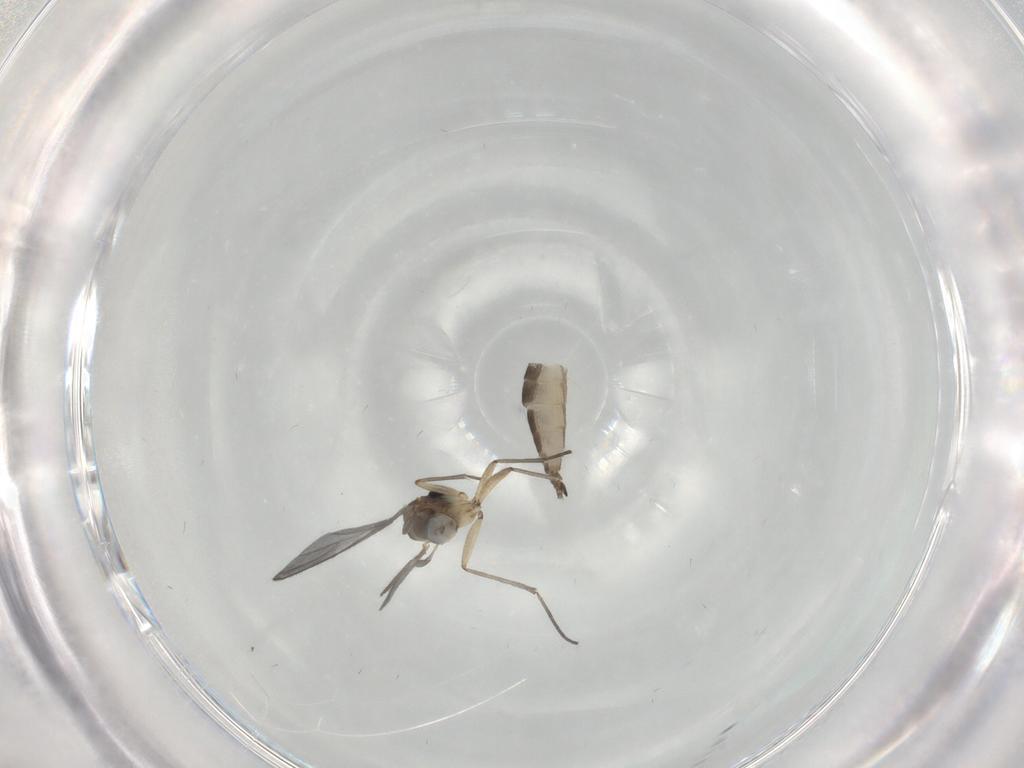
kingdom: Animalia
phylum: Arthropoda
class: Insecta
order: Diptera
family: Sciaridae
